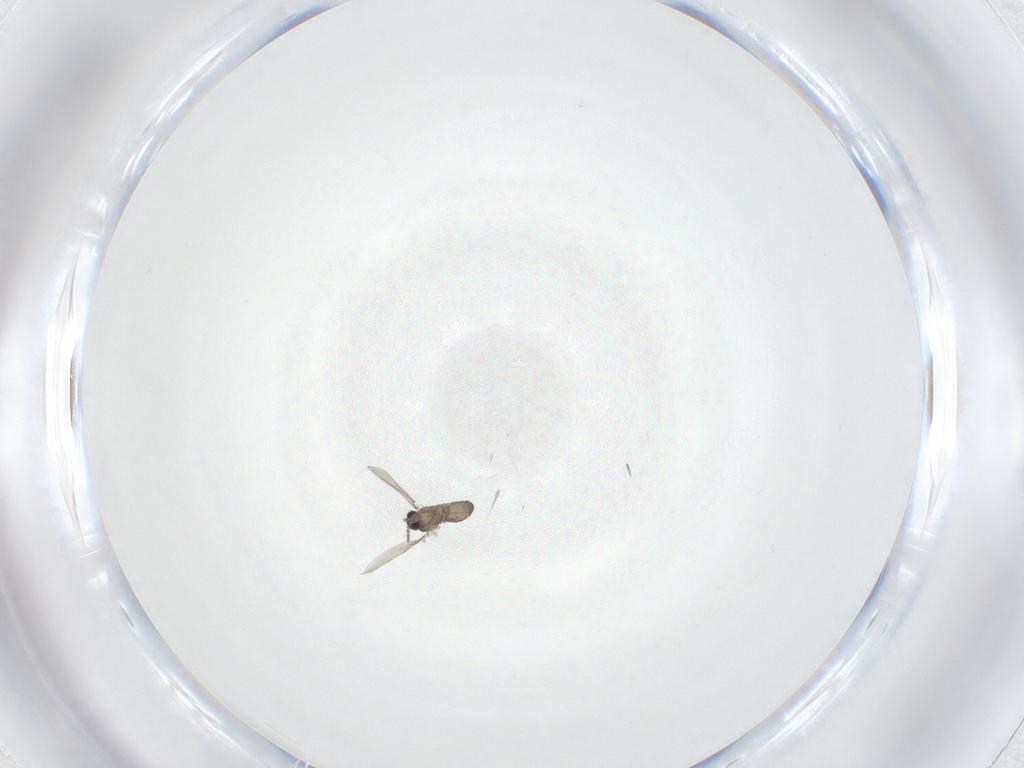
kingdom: Animalia
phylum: Arthropoda
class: Insecta
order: Diptera
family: Cecidomyiidae
